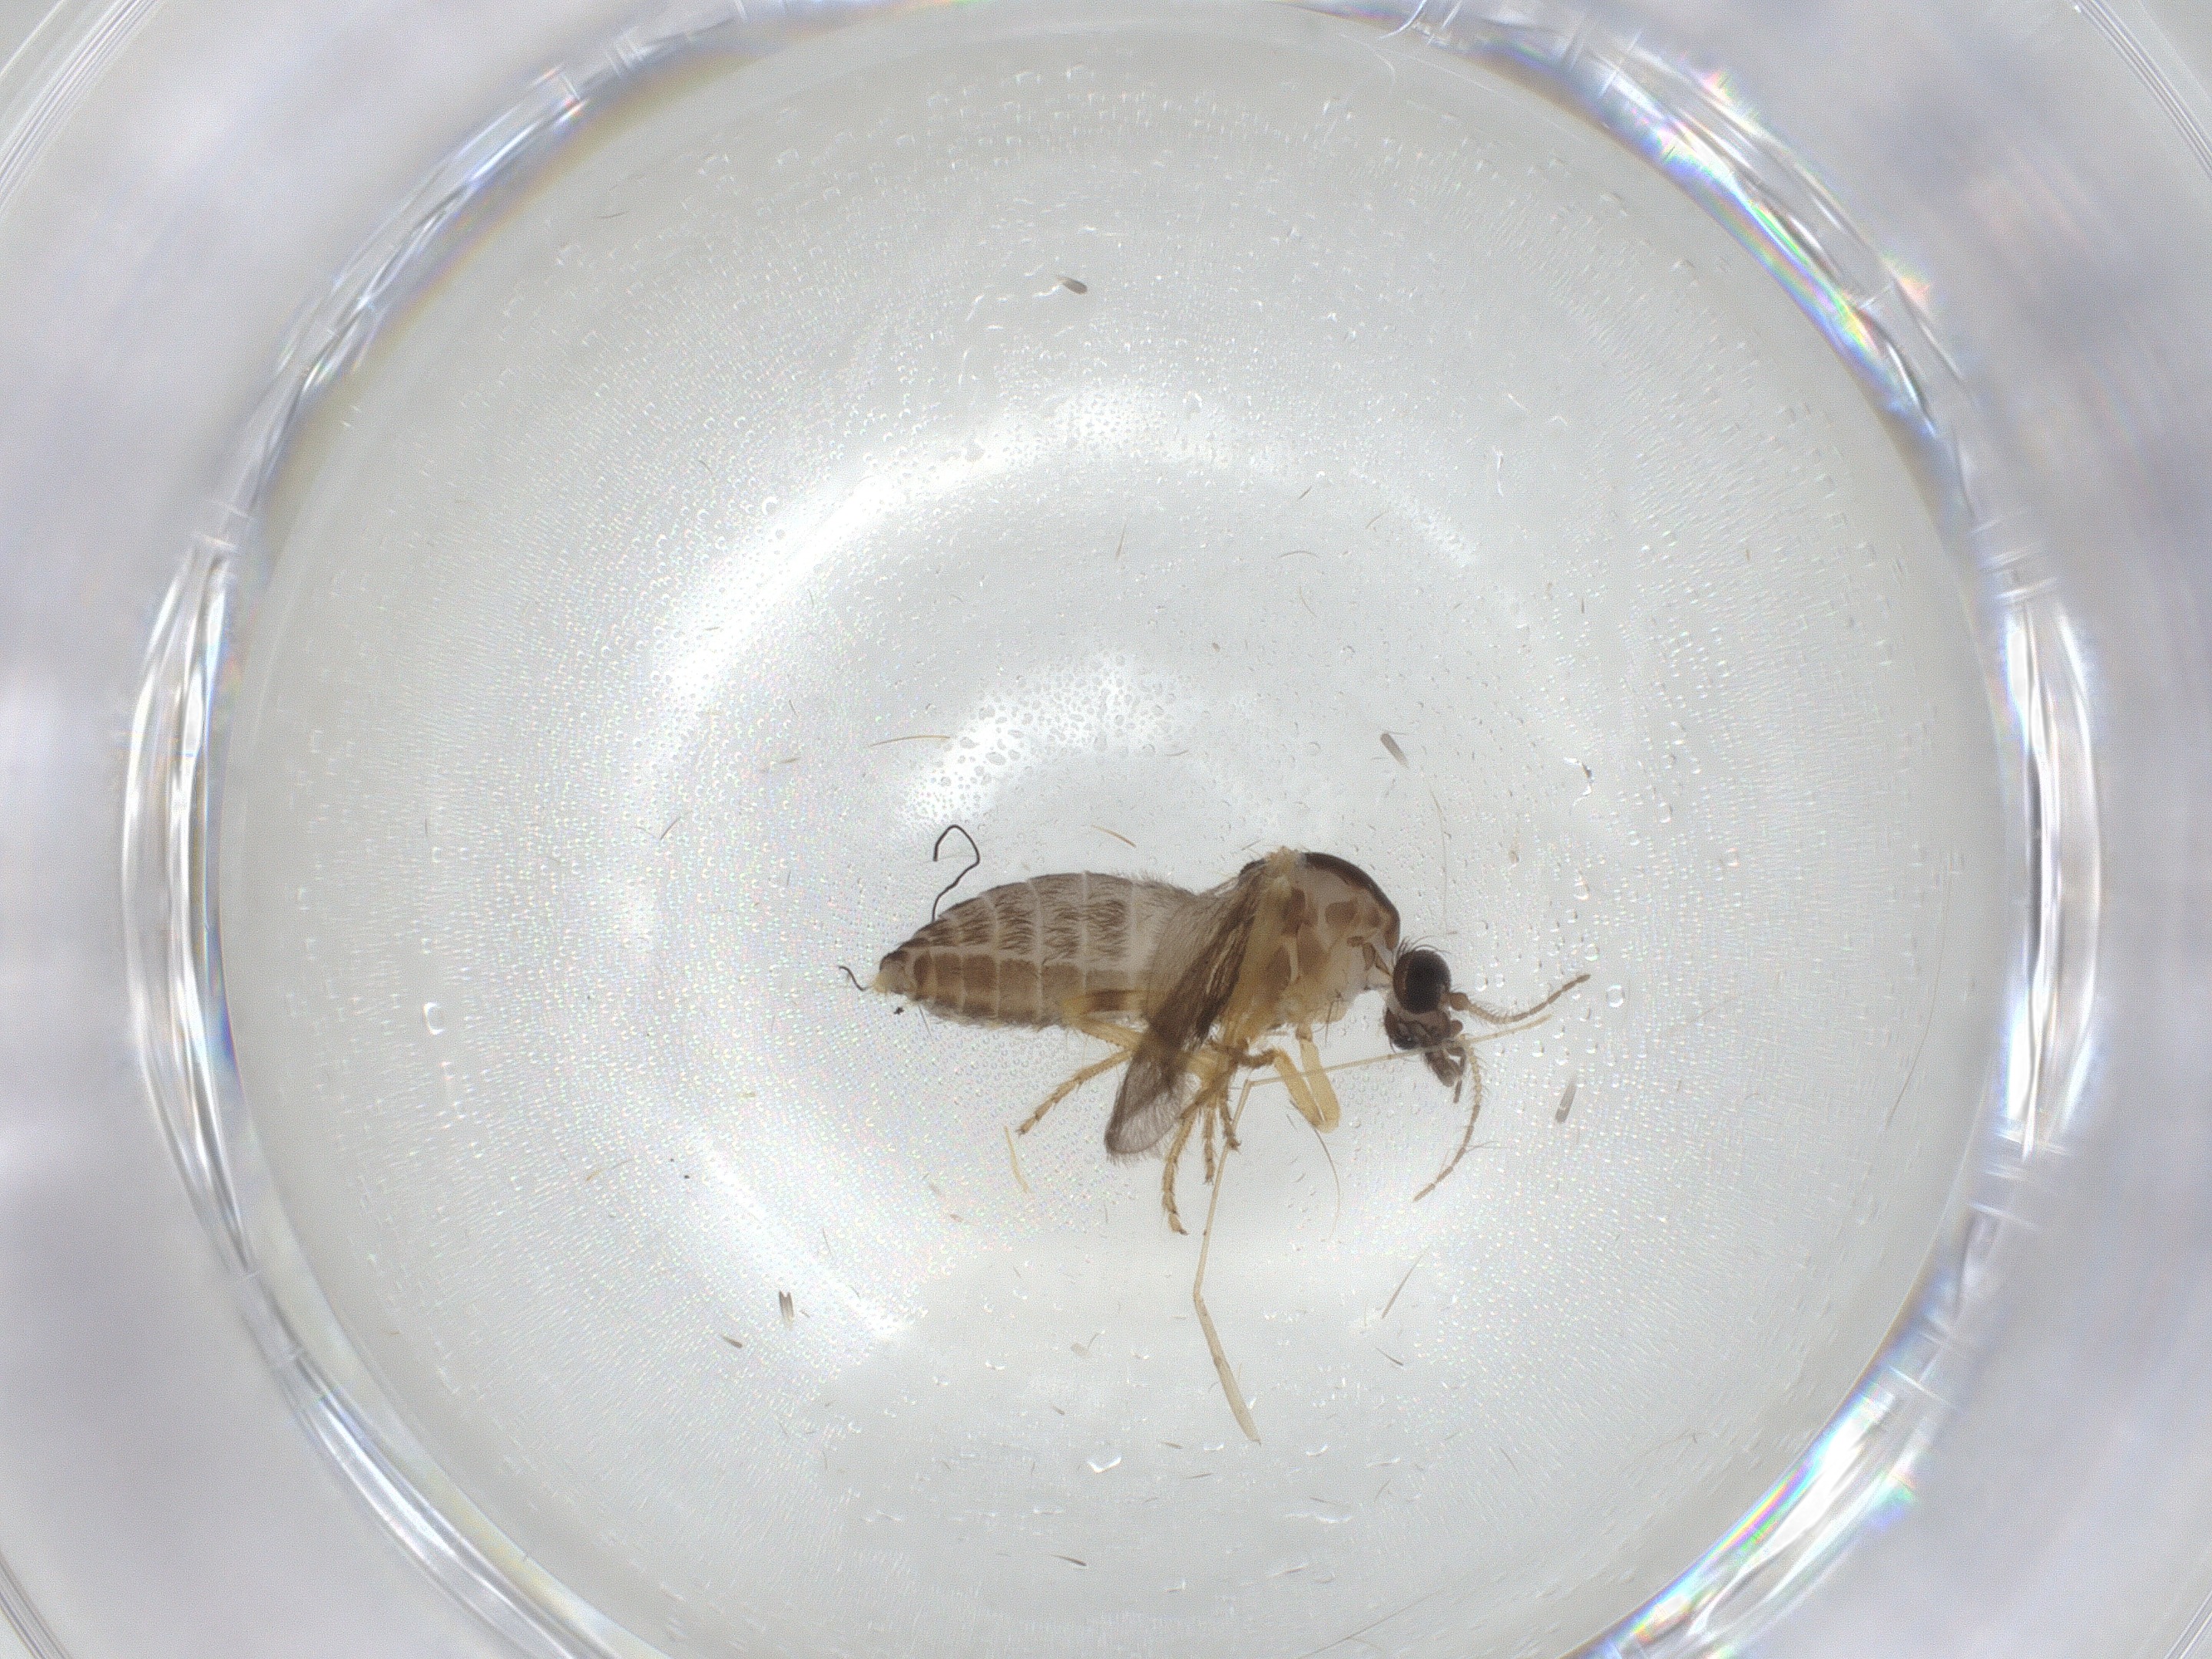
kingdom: Animalia
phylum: Arthropoda
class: Insecta
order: Diptera
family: Ceratopogonidae
